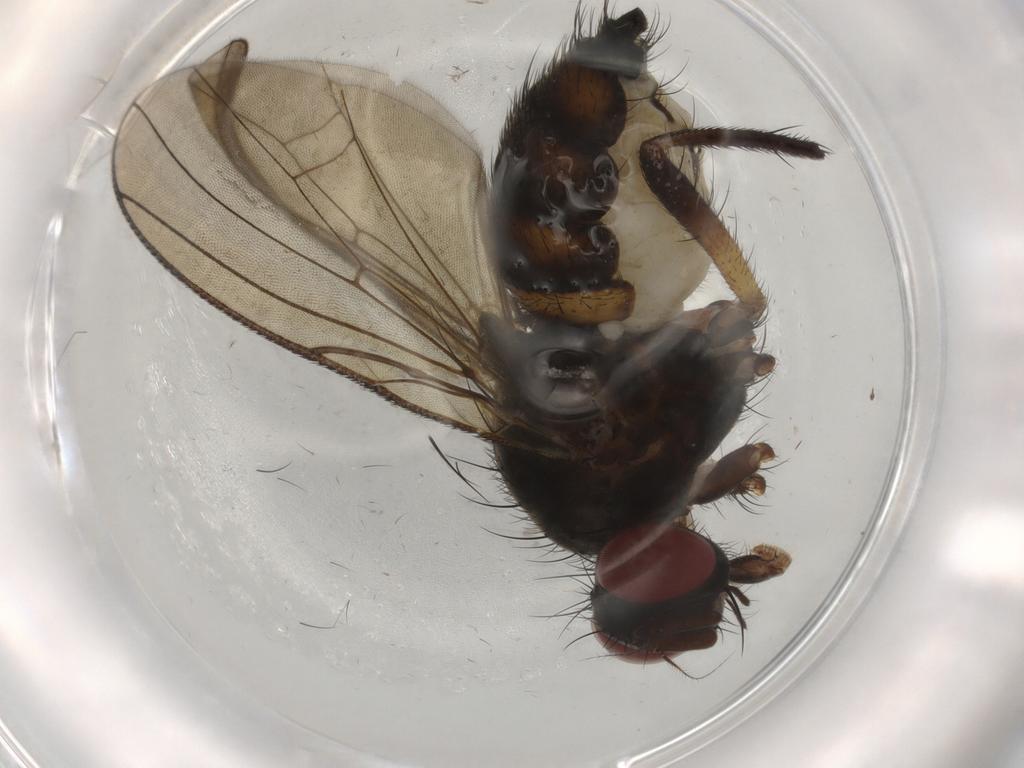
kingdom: Animalia
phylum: Arthropoda
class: Insecta
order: Diptera
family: Anthomyiidae
